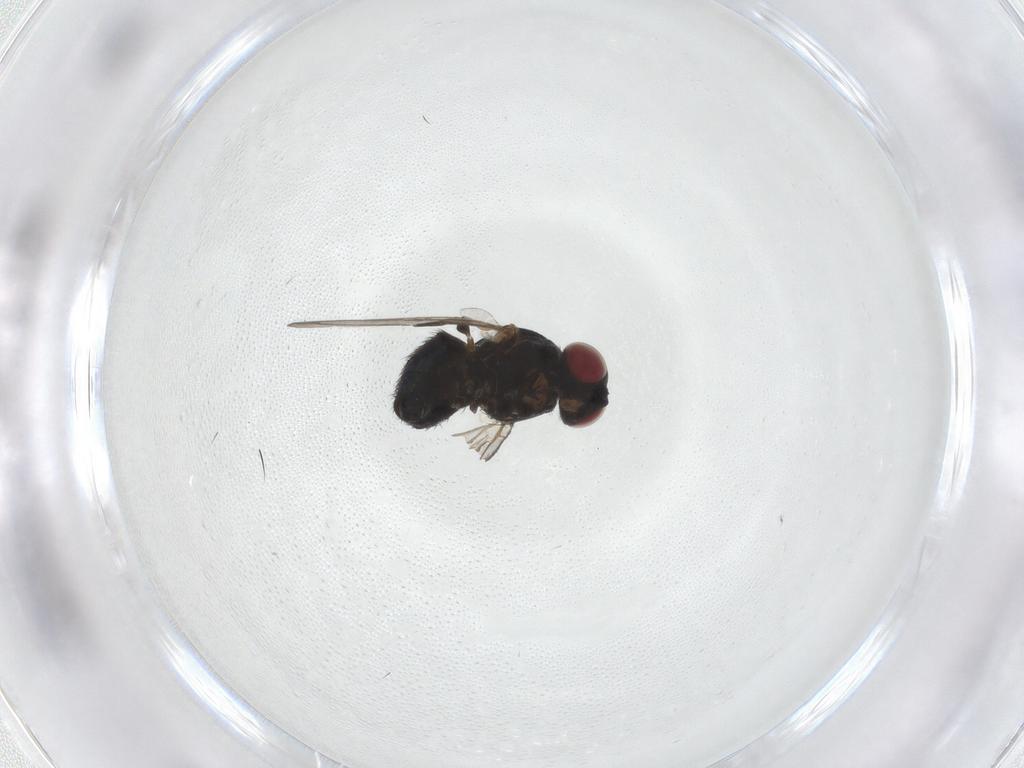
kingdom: Animalia
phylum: Arthropoda
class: Insecta
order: Diptera
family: Agromyzidae
